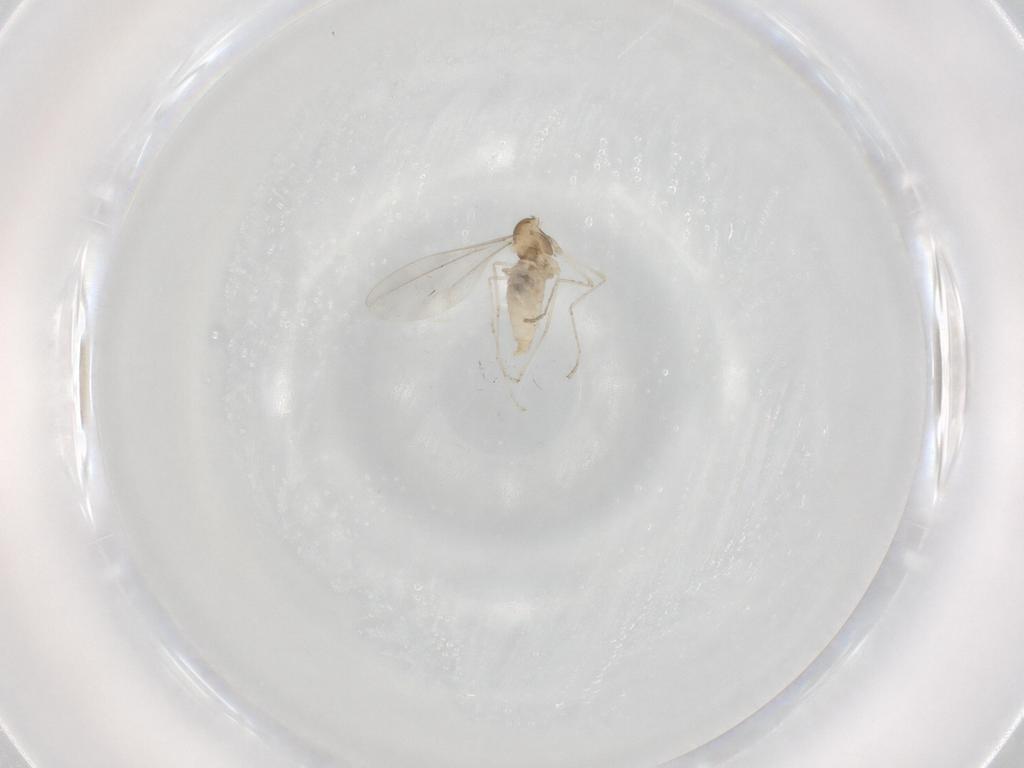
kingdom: Animalia
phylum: Arthropoda
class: Insecta
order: Diptera
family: Cecidomyiidae
